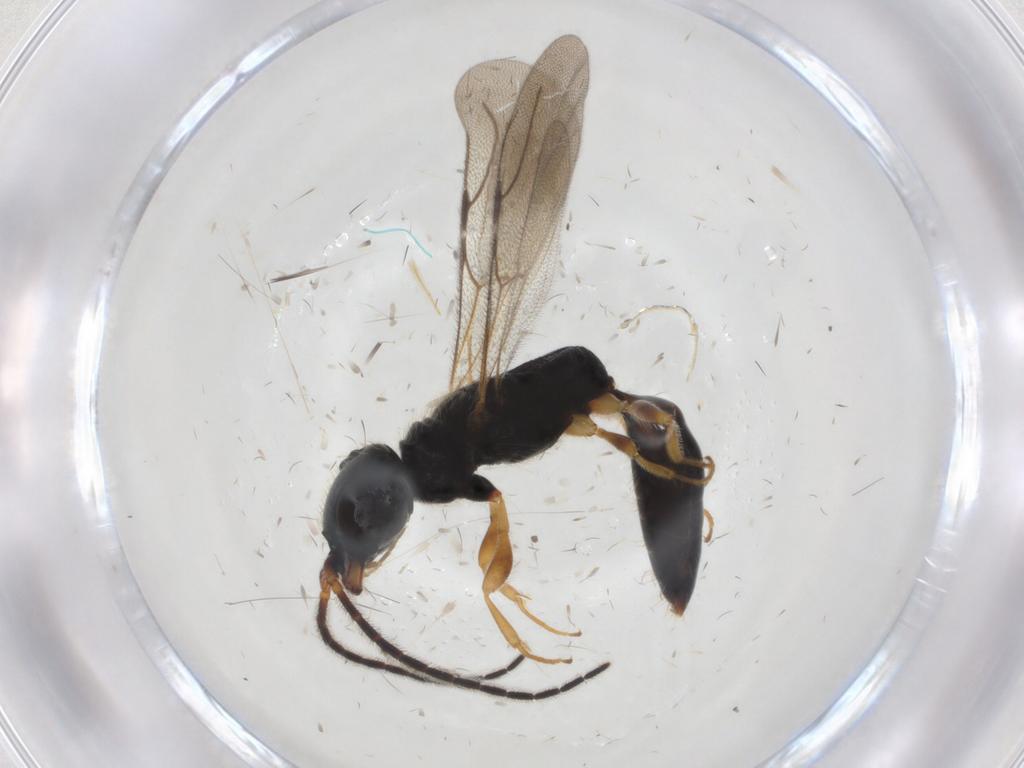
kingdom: Animalia
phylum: Arthropoda
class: Insecta
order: Hymenoptera
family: Bethylidae
